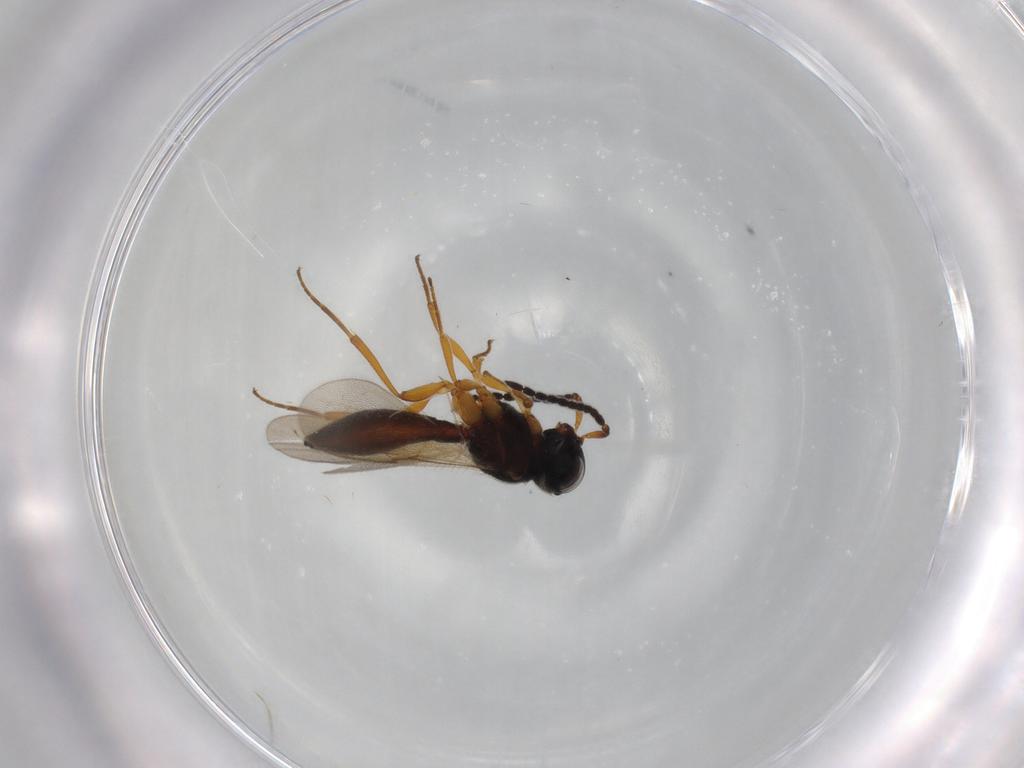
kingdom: Animalia
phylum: Arthropoda
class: Insecta
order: Hymenoptera
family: Scelionidae
